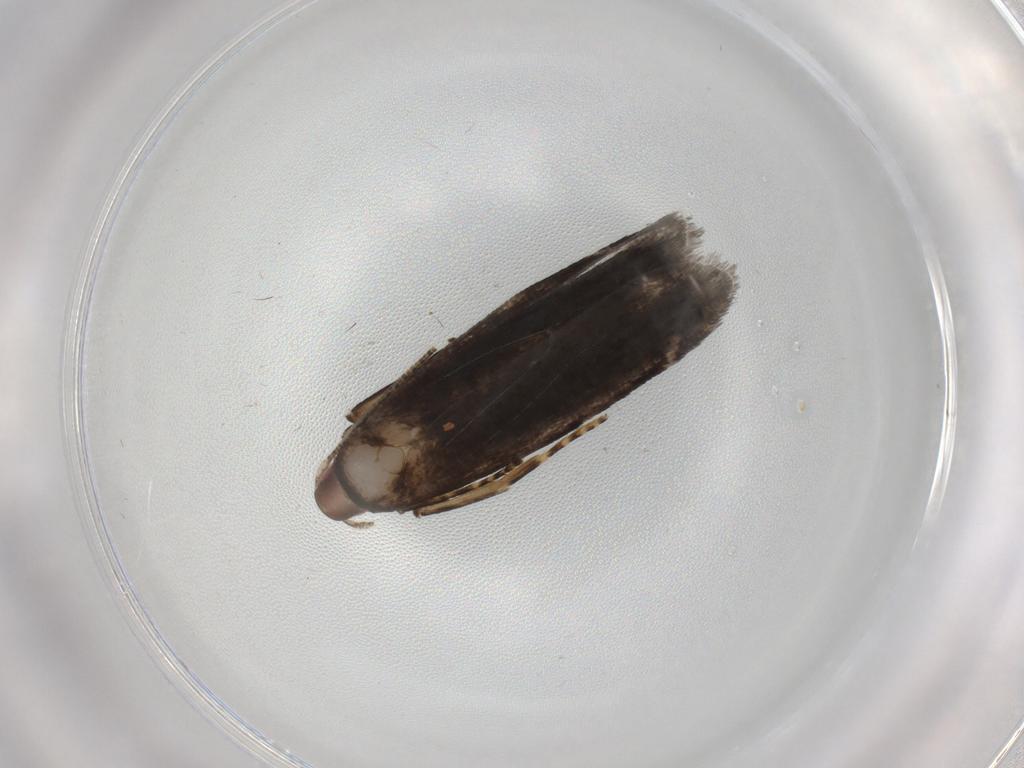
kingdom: Animalia
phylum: Arthropoda
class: Insecta
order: Lepidoptera
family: Gelechiidae
